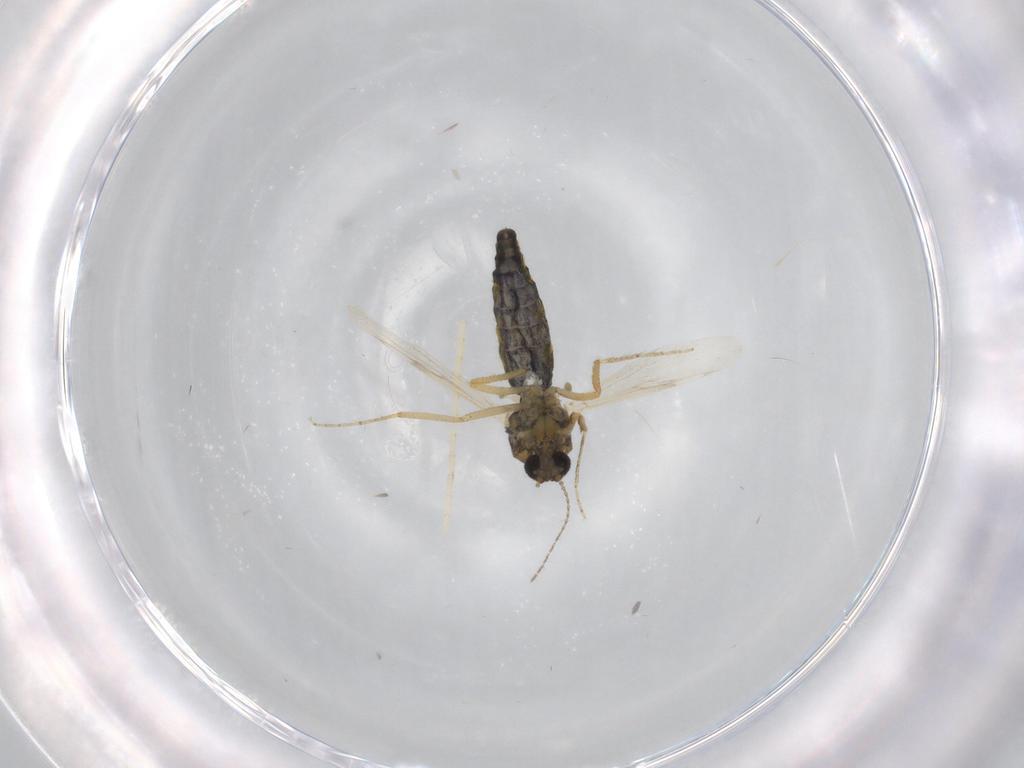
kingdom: Animalia
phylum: Arthropoda
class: Insecta
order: Diptera
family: Ceratopogonidae
